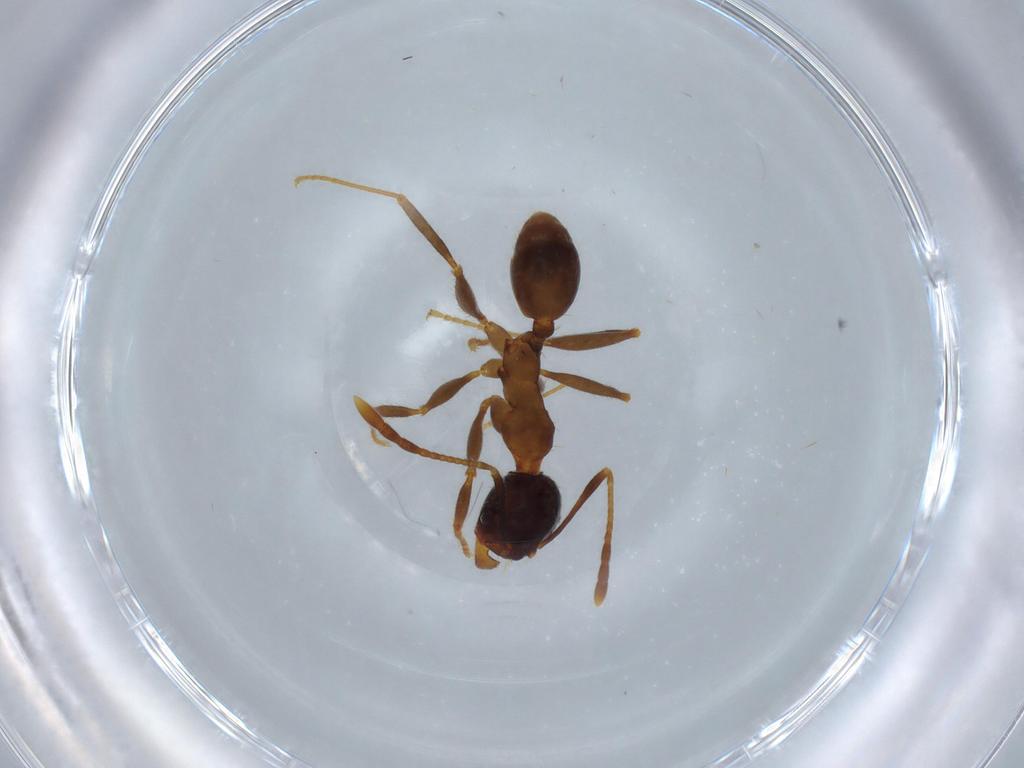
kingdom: Animalia
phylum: Arthropoda
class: Insecta
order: Hymenoptera
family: Formicidae
